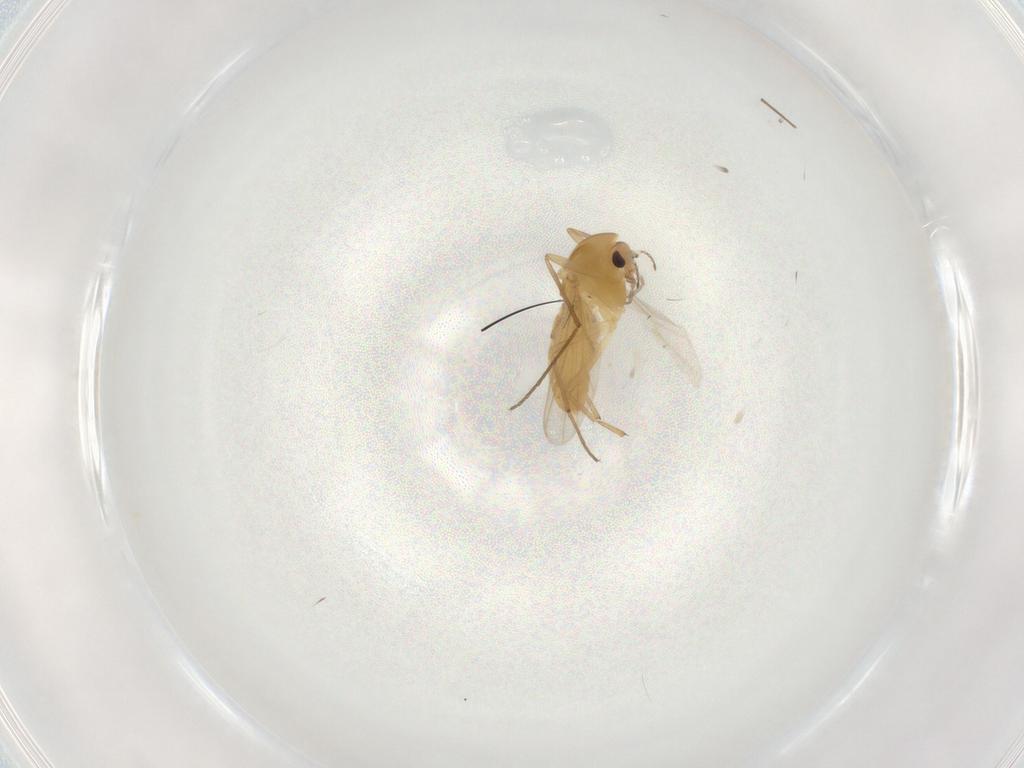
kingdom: Animalia
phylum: Arthropoda
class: Insecta
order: Diptera
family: Chironomidae
